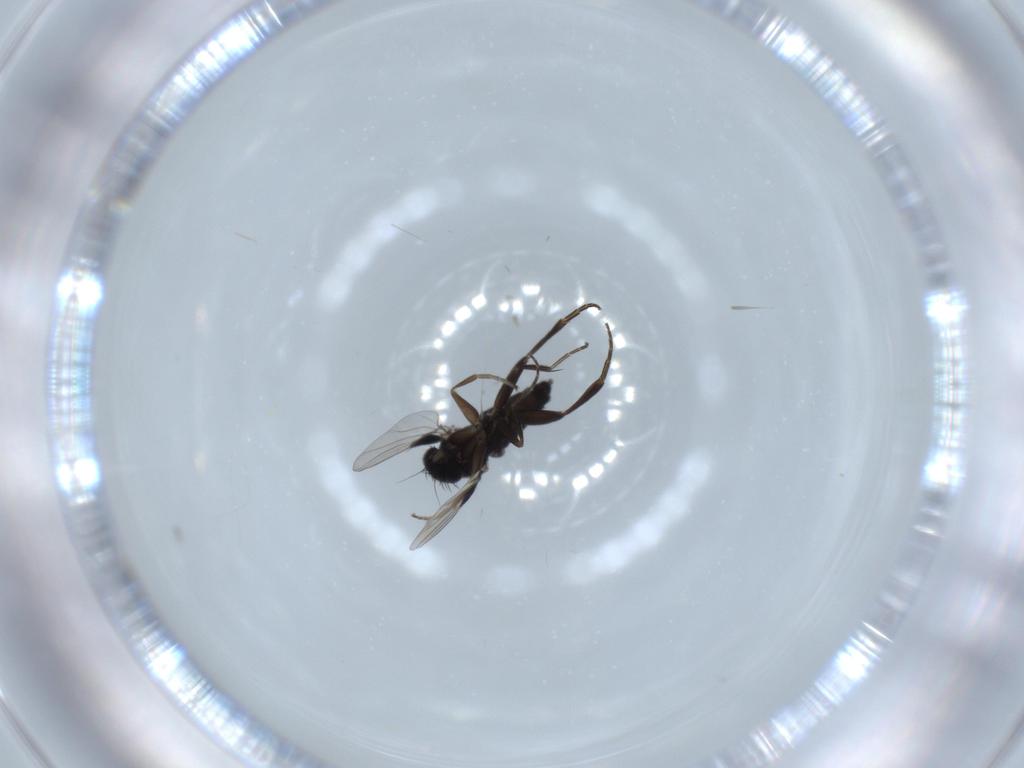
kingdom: Animalia
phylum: Arthropoda
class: Insecta
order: Diptera
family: Phoridae
